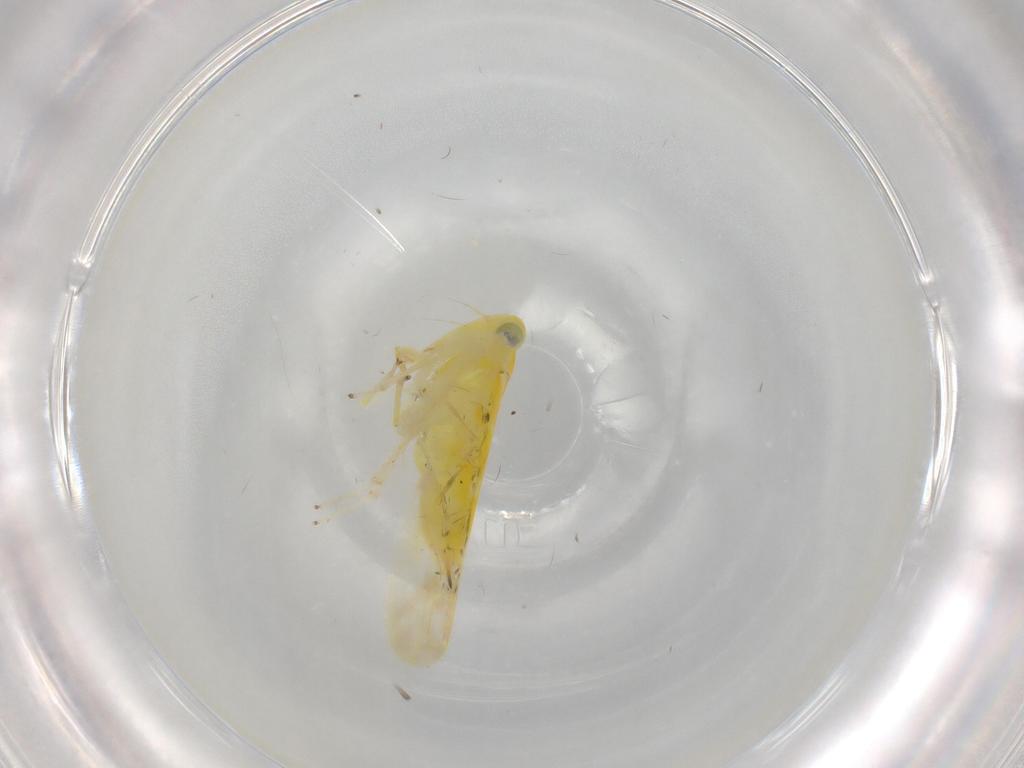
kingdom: Animalia
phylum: Arthropoda
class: Insecta
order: Hemiptera
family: Cicadellidae
